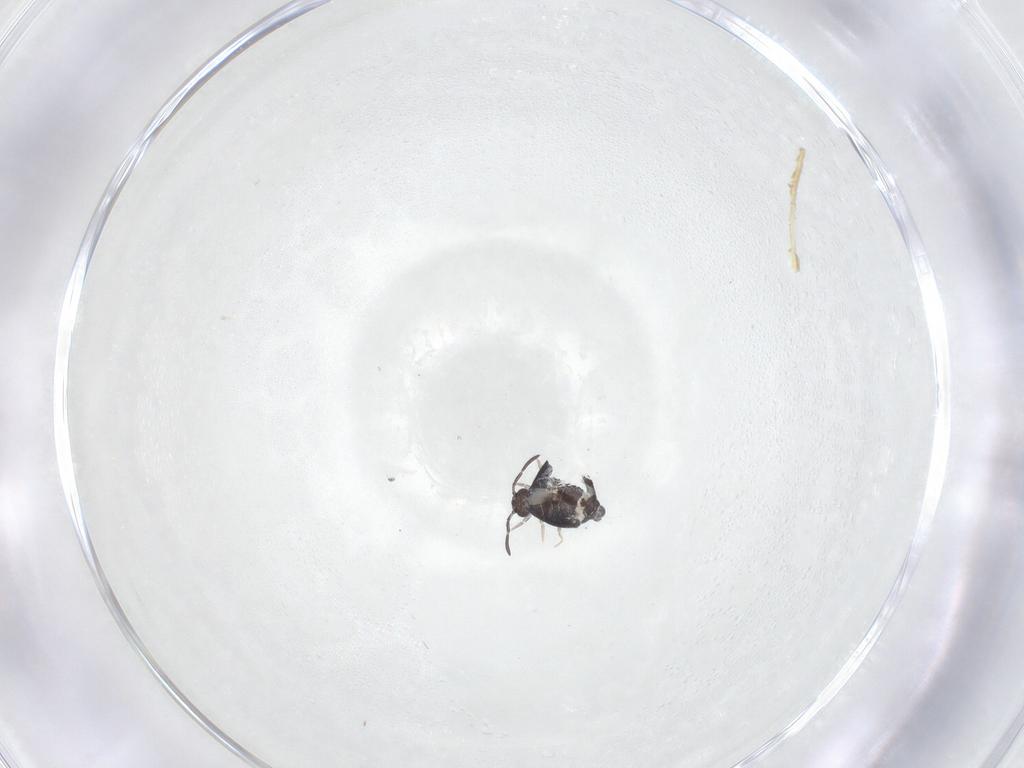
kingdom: Animalia
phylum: Arthropoda
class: Collembola
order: Symphypleona
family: Katiannidae
